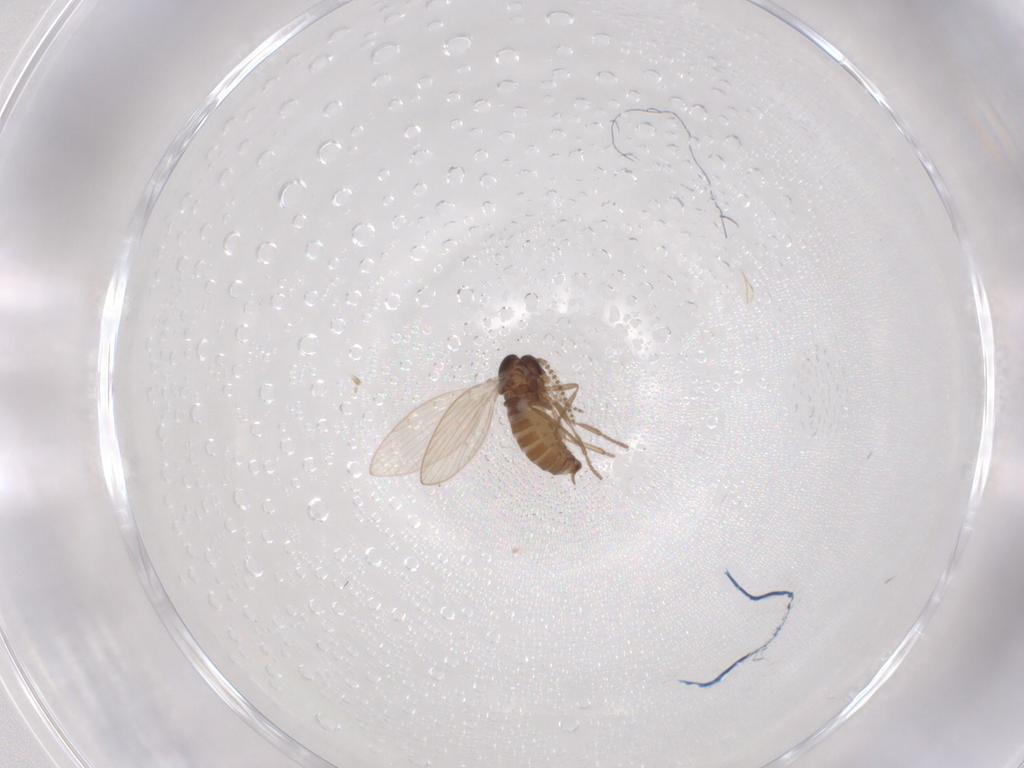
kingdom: Animalia
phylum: Arthropoda
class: Insecta
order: Diptera
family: Psychodidae
